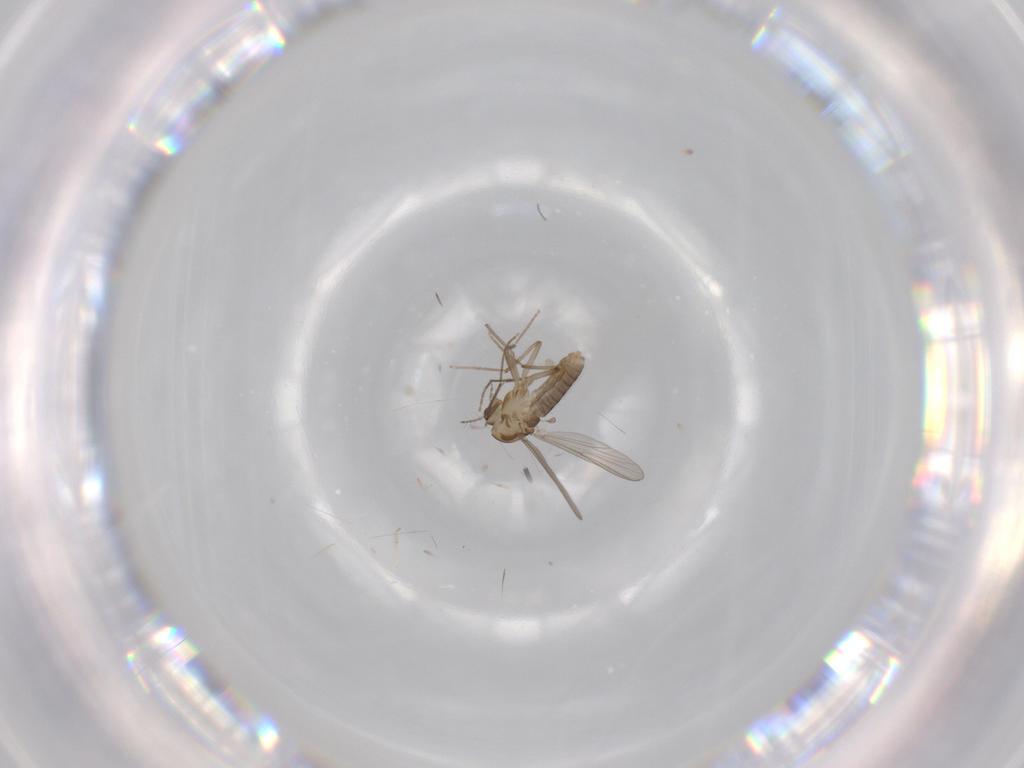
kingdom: Animalia
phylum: Arthropoda
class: Insecta
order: Diptera
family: Chironomidae
